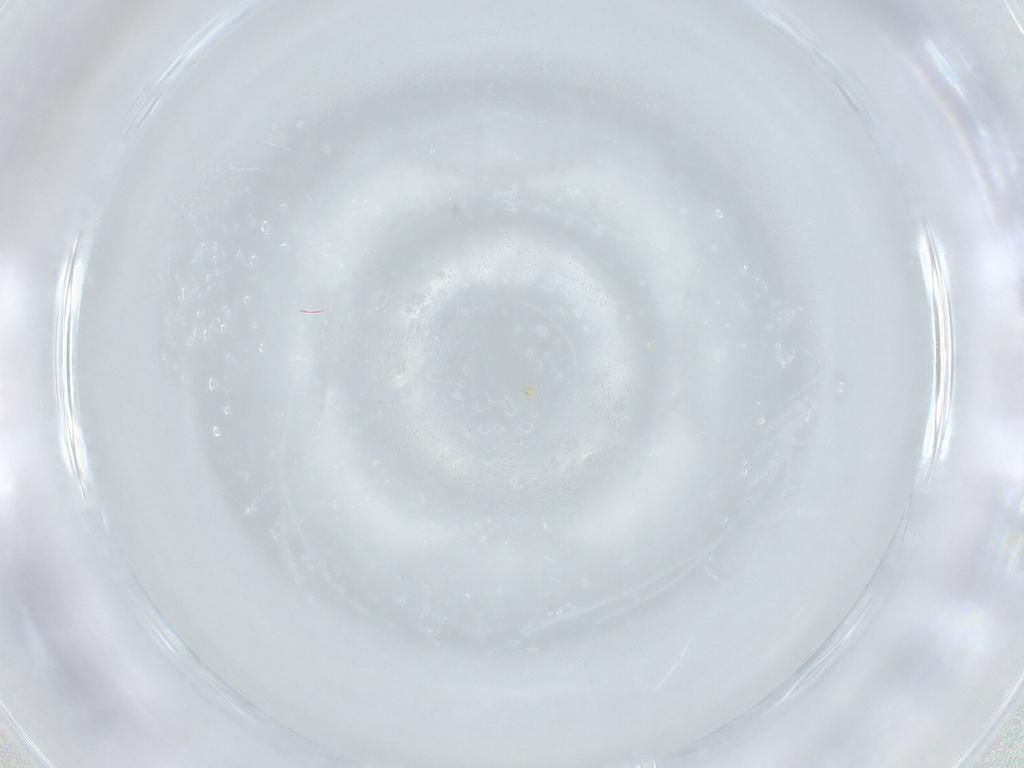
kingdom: Animalia
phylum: Arthropoda
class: Insecta
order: Diptera
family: Chironomidae
